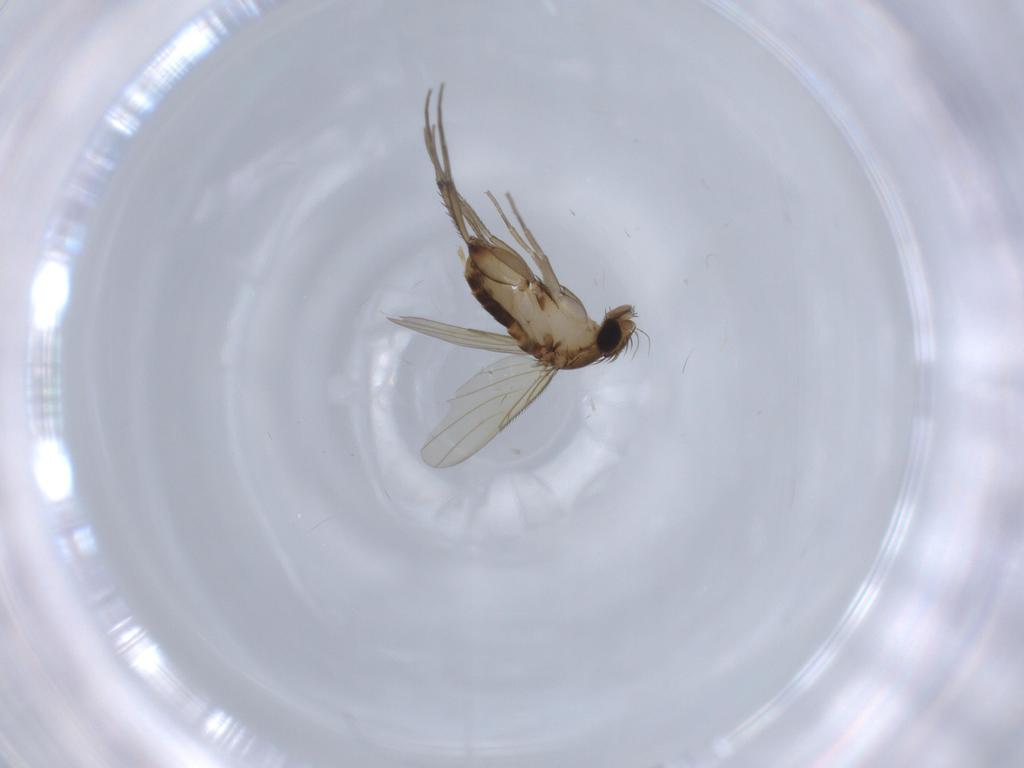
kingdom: Animalia
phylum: Arthropoda
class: Insecta
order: Diptera
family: Phoridae
